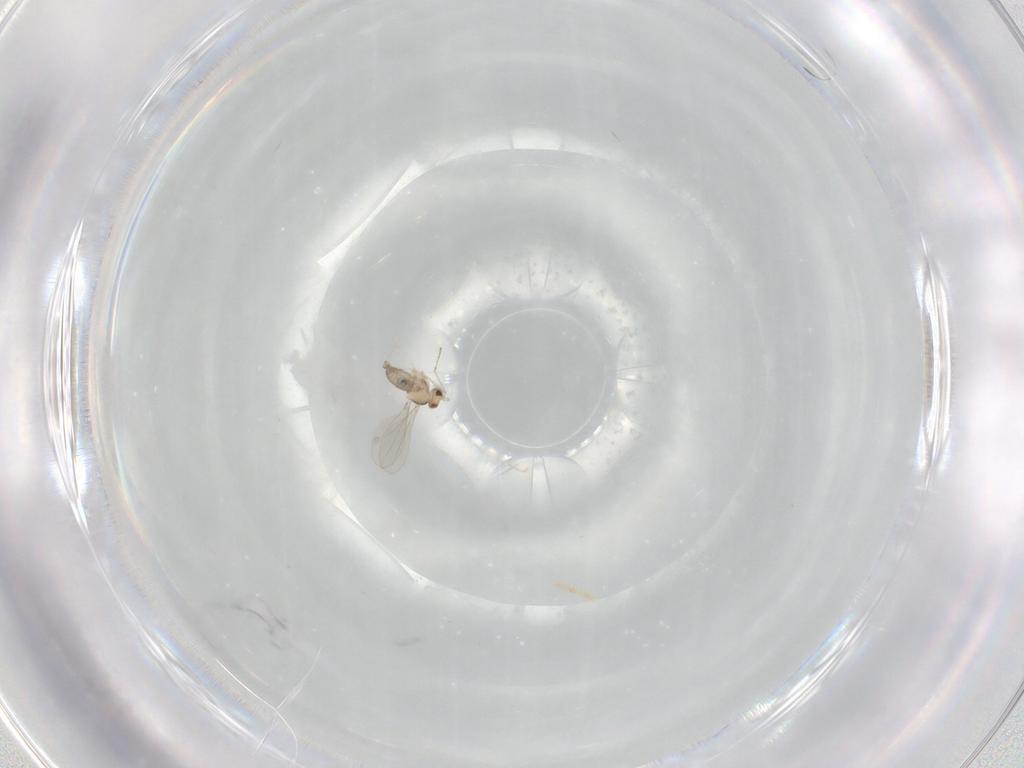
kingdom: Animalia
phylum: Arthropoda
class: Insecta
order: Diptera
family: Cecidomyiidae
